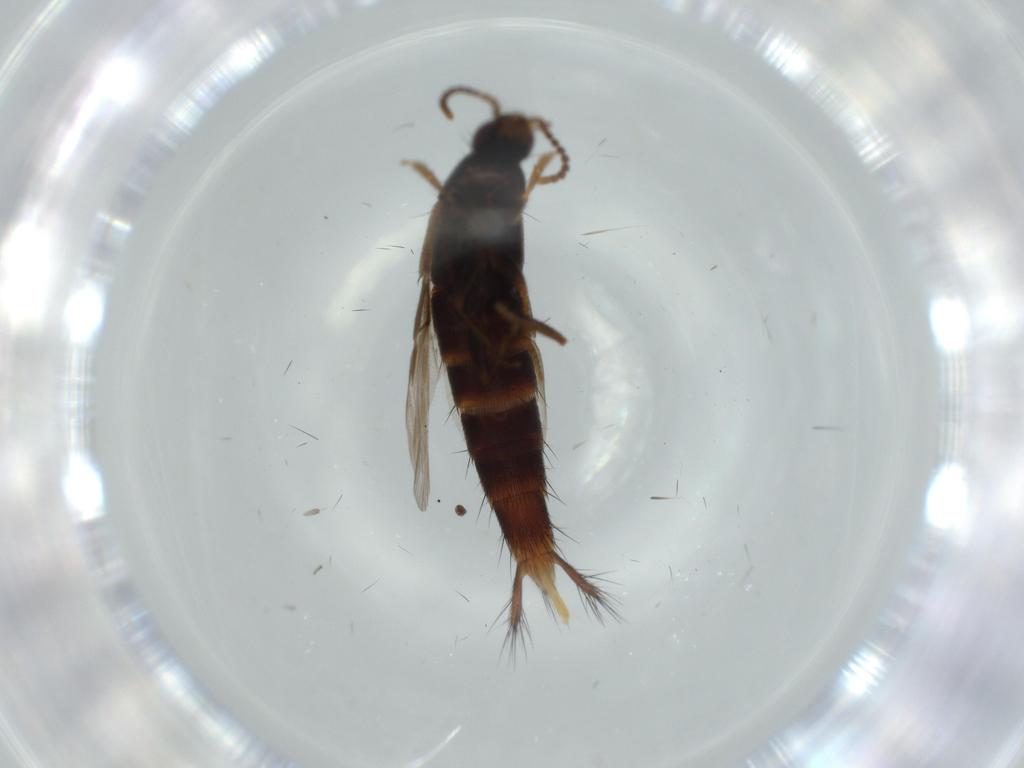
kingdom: Animalia
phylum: Arthropoda
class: Insecta
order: Coleoptera
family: Staphylinidae
